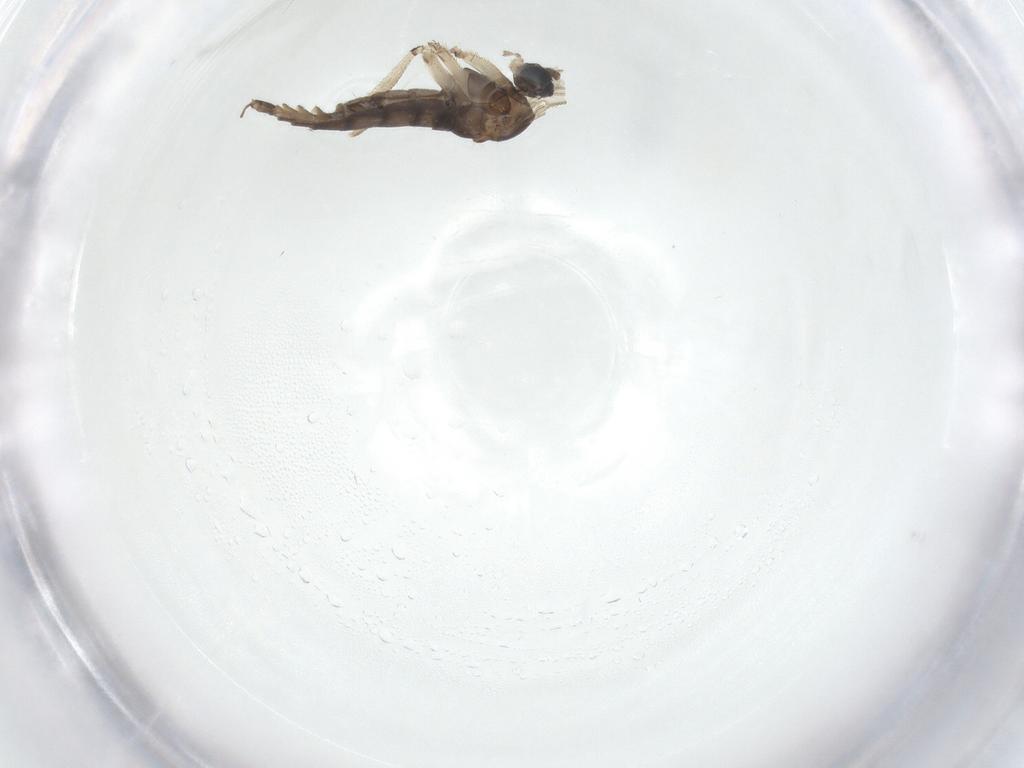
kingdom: Animalia
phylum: Arthropoda
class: Insecta
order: Diptera
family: Sciaridae
